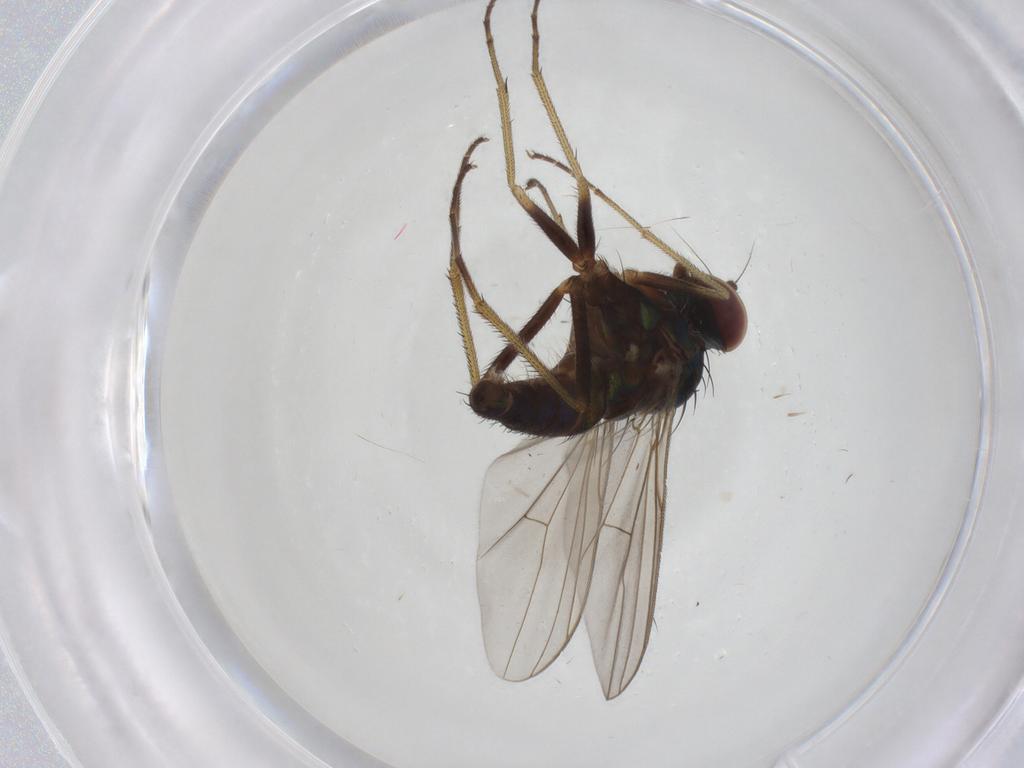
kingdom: Animalia
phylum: Arthropoda
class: Insecta
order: Diptera
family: Dolichopodidae
